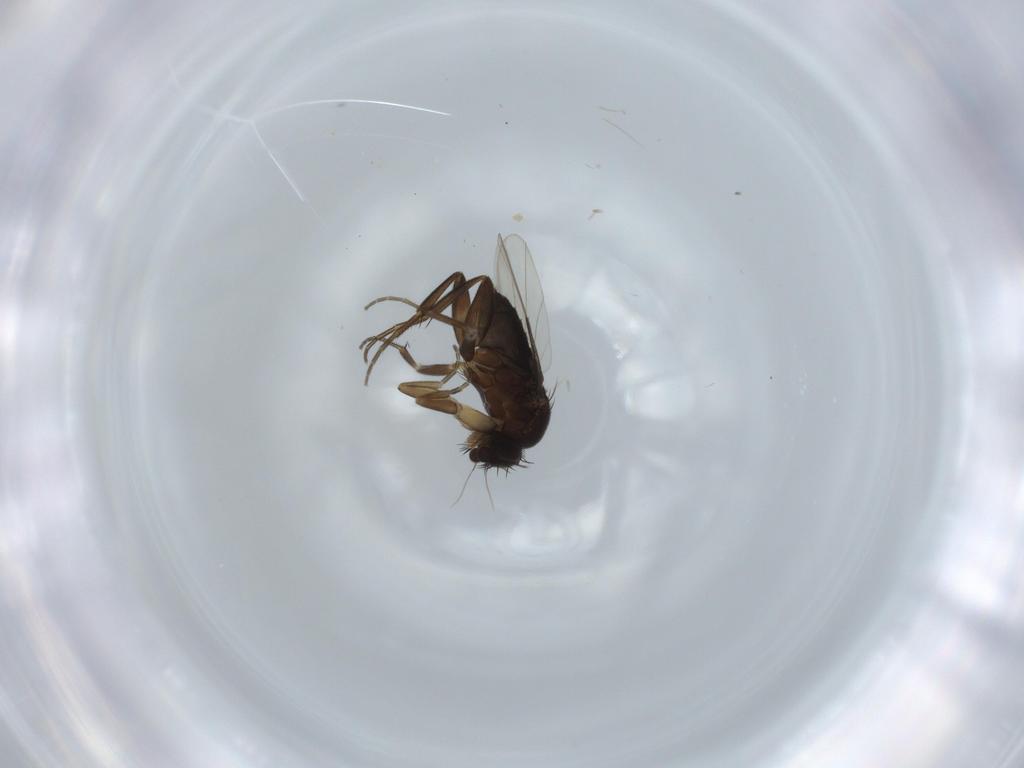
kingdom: Animalia
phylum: Arthropoda
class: Insecta
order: Diptera
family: Phoridae
